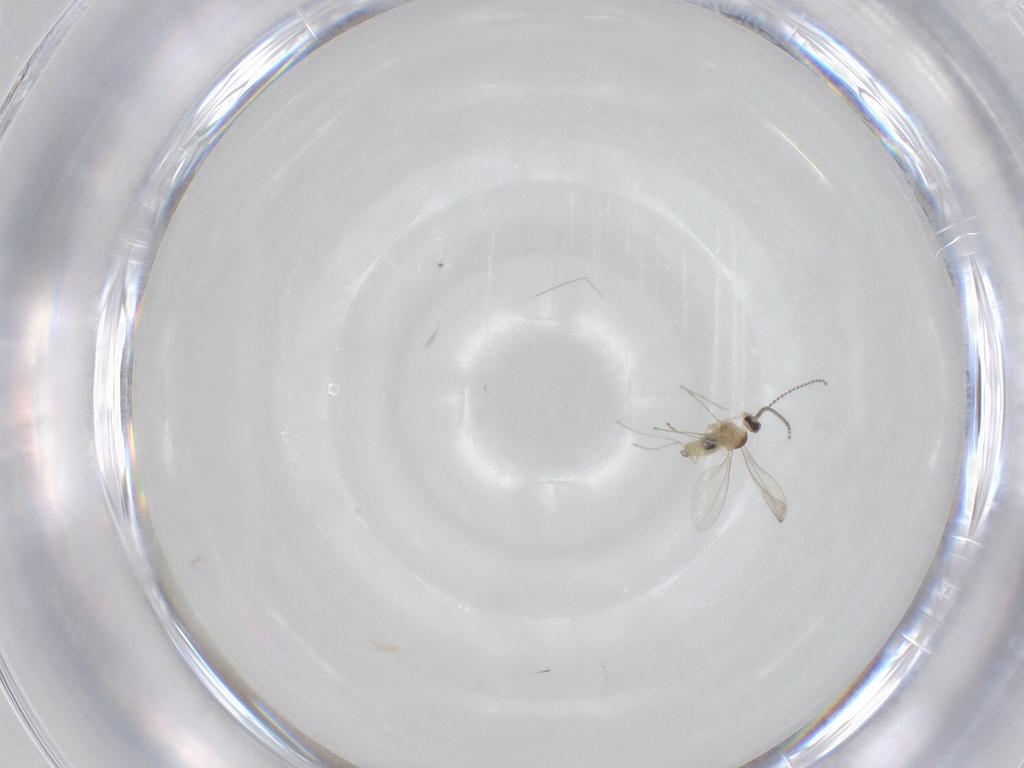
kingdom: Animalia
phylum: Arthropoda
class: Insecta
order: Diptera
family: Cecidomyiidae
